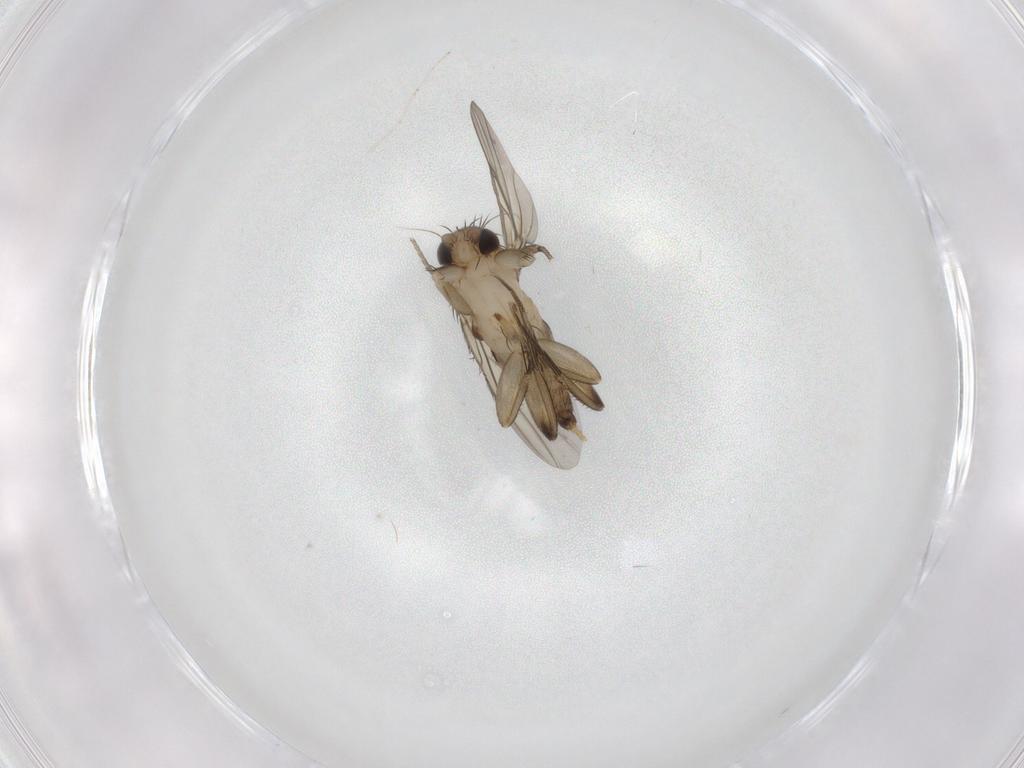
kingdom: Animalia
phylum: Arthropoda
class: Insecta
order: Diptera
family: Sciaridae
